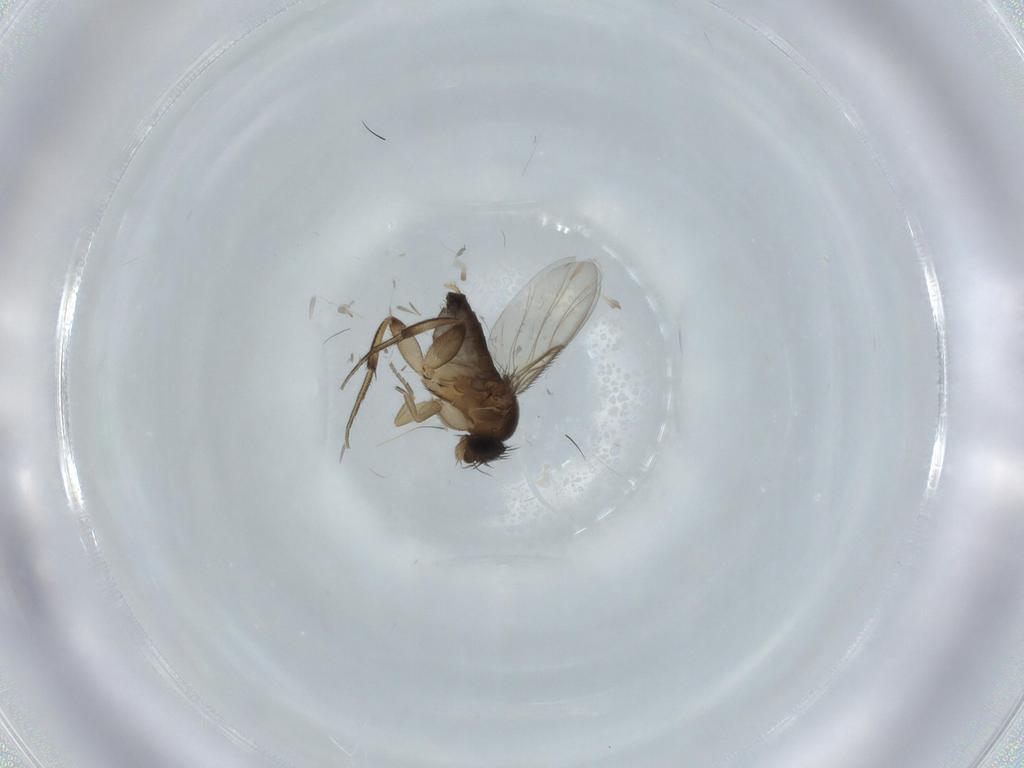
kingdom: Animalia
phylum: Arthropoda
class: Insecta
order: Diptera
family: Phoridae
